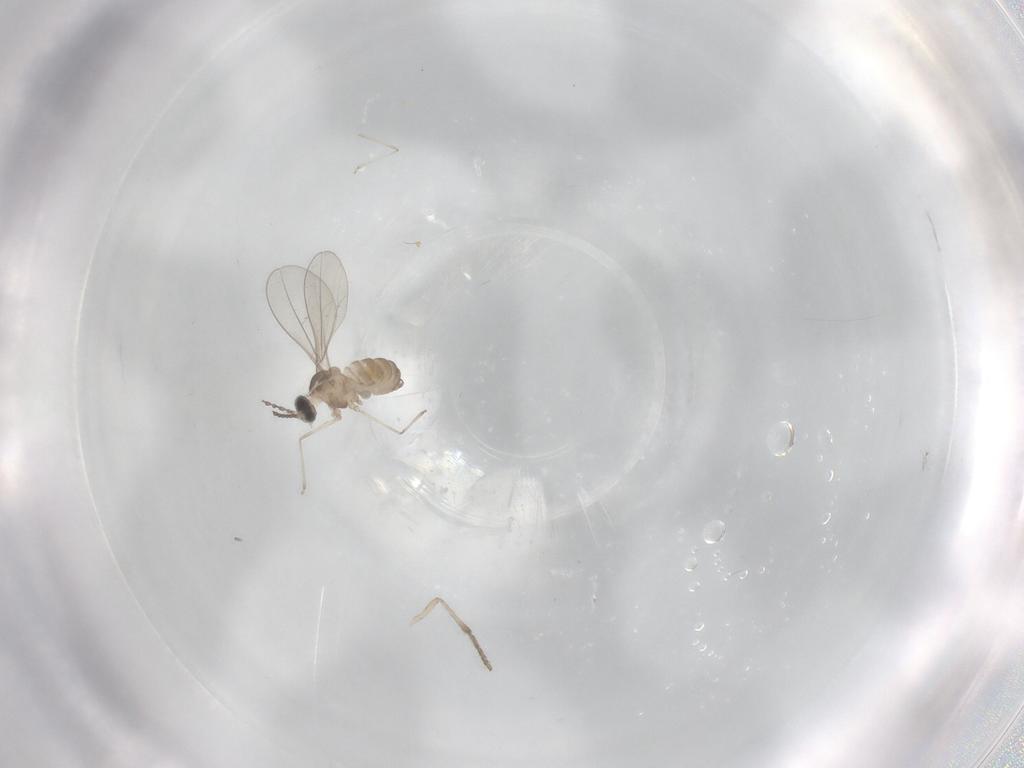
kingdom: Animalia
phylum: Arthropoda
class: Insecta
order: Diptera
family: Cecidomyiidae
